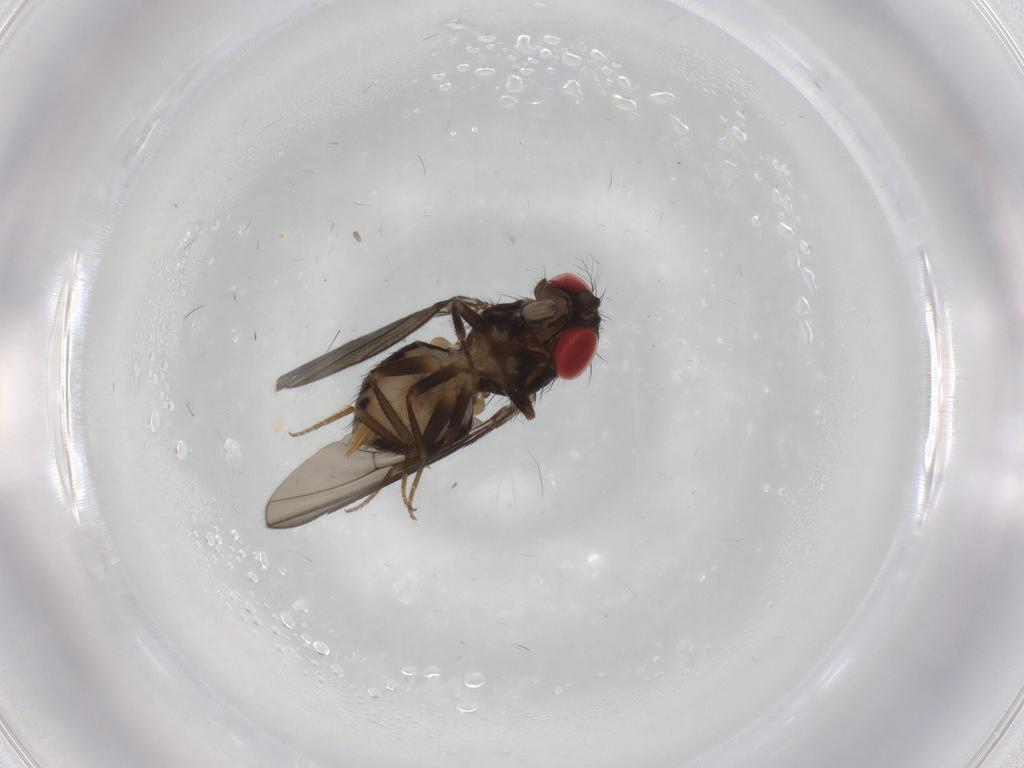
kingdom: Animalia
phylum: Arthropoda
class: Insecta
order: Diptera
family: Drosophilidae
